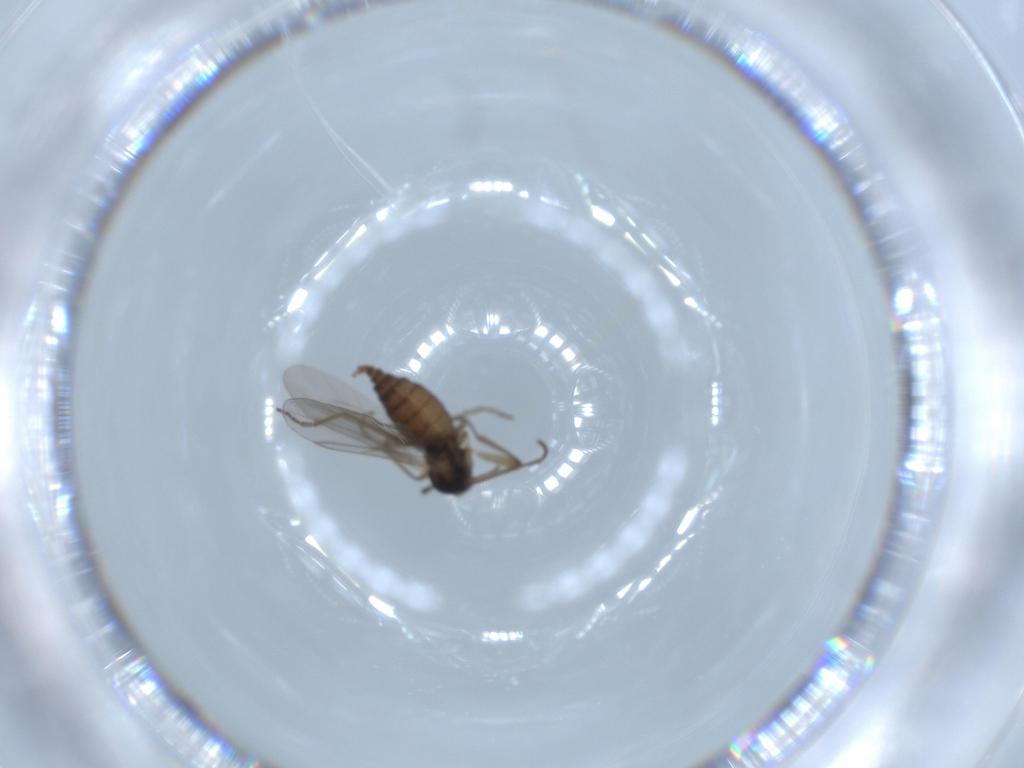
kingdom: Animalia
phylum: Arthropoda
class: Insecta
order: Diptera
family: Cecidomyiidae
